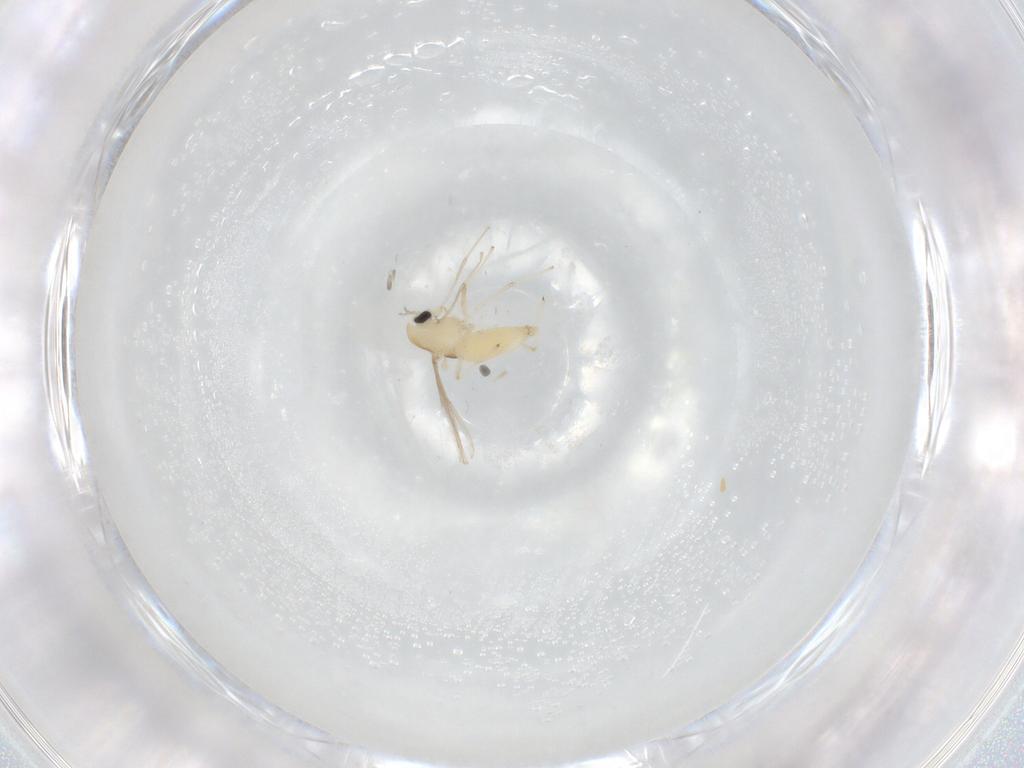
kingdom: Animalia
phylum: Arthropoda
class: Insecta
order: Diptera
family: Chironomidae
